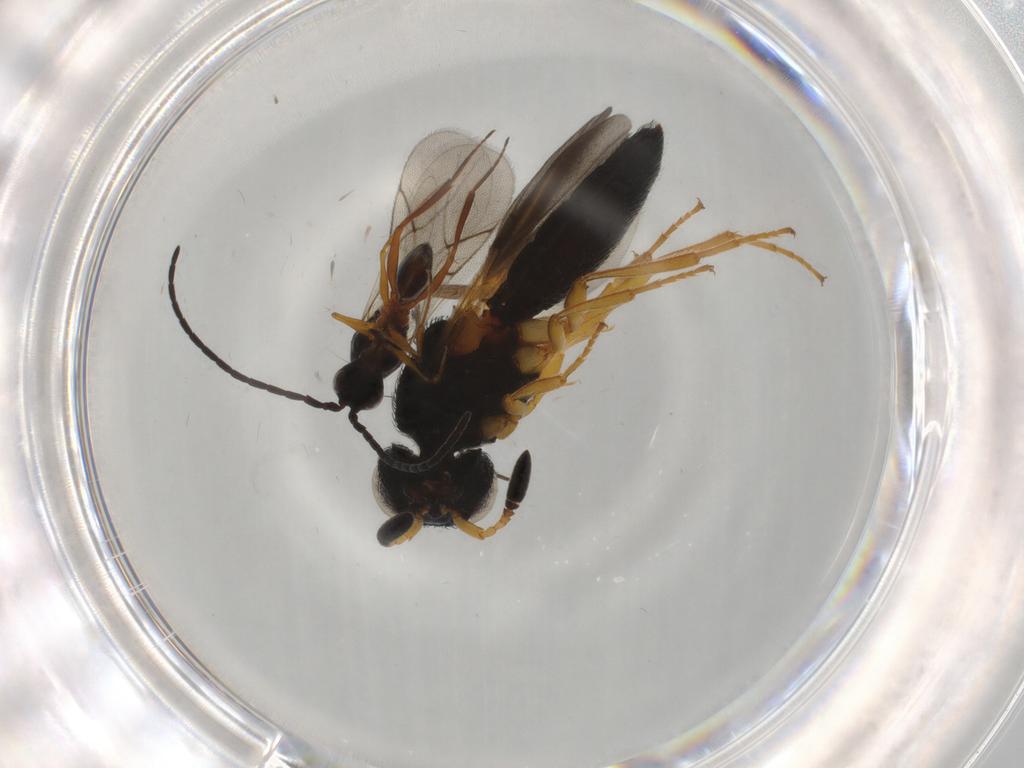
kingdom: Animalia
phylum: Arthropoda
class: Insecta
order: Hymenoptera
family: Figitidae
